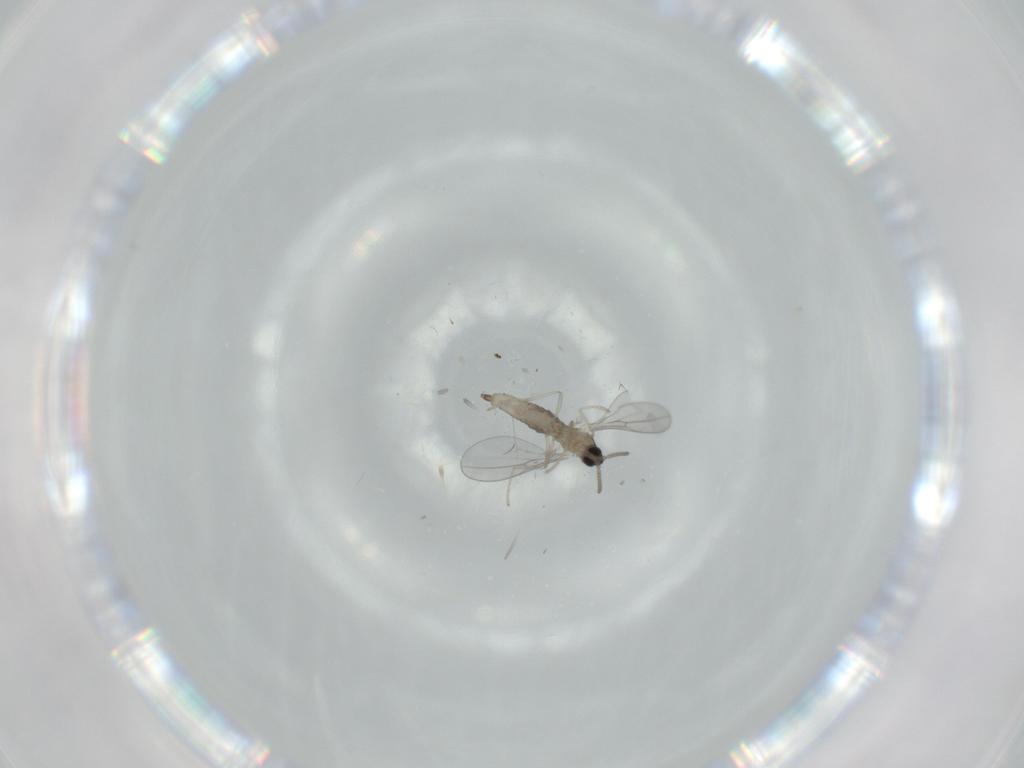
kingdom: Animalia
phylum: Arthropoda
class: Insecta
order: Diptera
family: Cecidomyiidae
